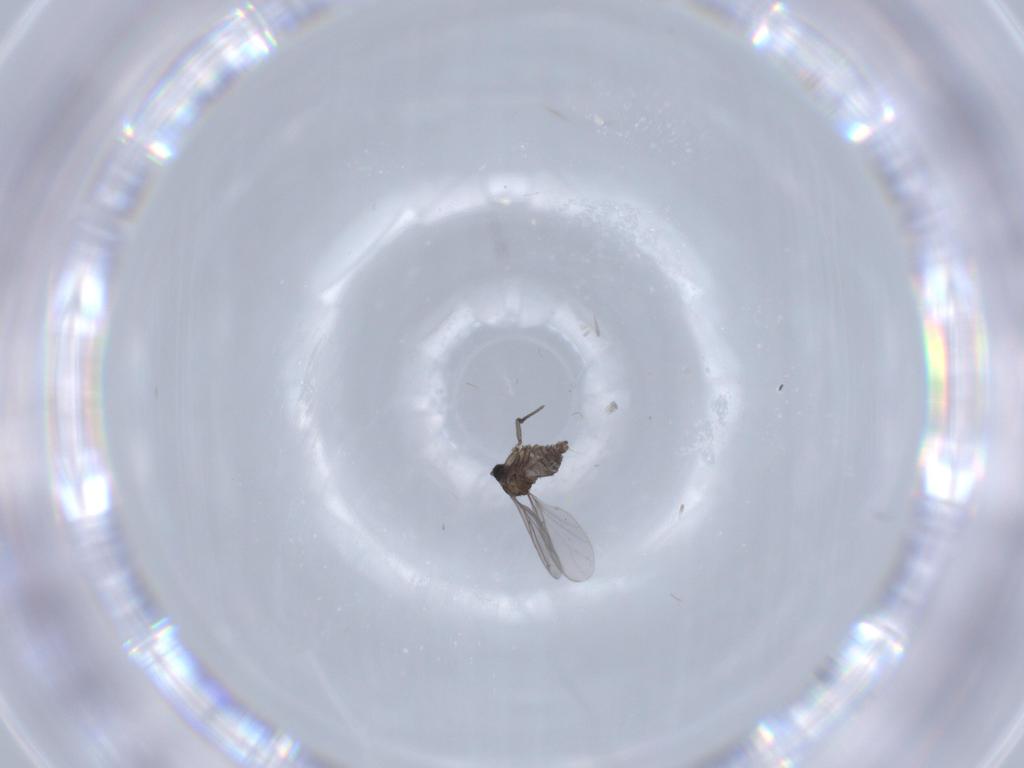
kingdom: Animalia
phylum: Arthropoda
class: Insecta
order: Diptera
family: Sciaridae
